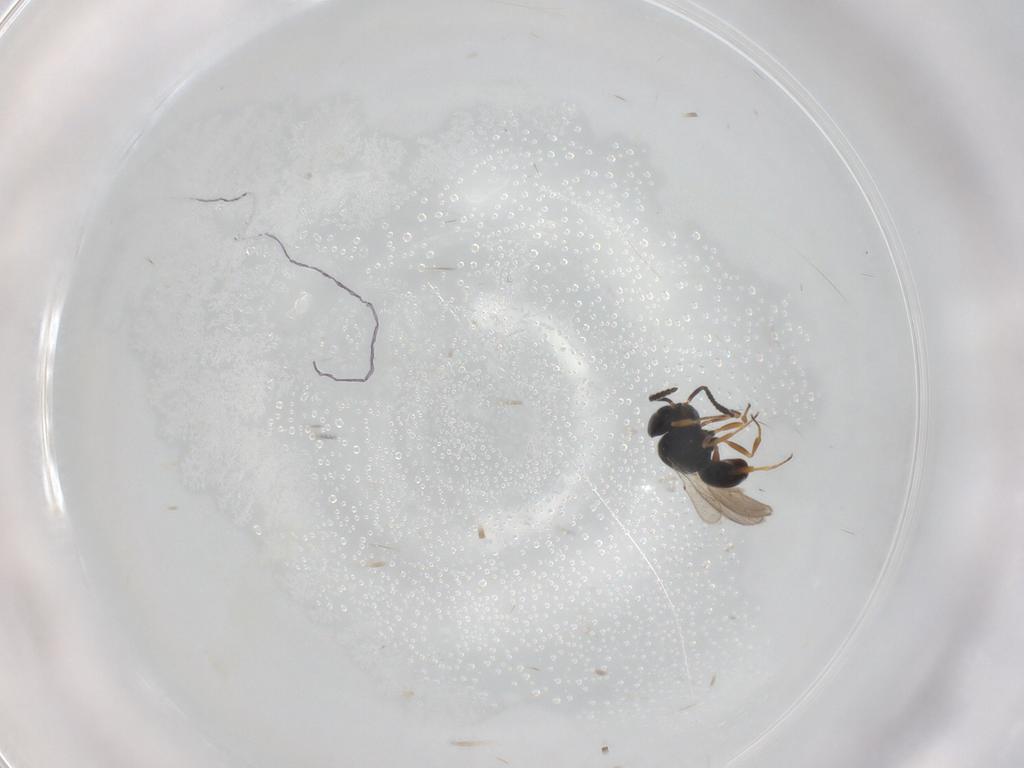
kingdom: Animalia
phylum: Arthropoda
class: Insecta
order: Hymenoptera
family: Scelionidae
